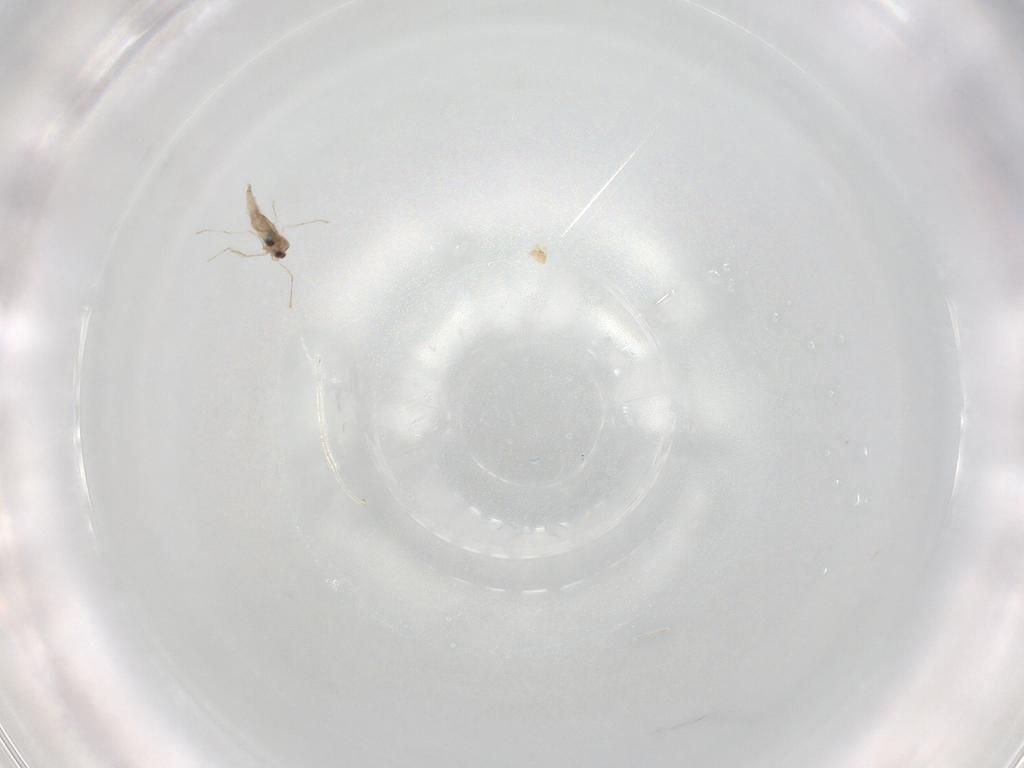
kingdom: Animalia
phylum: Arthropoda
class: Insecta
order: Diptera
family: Cecidomyiidae
